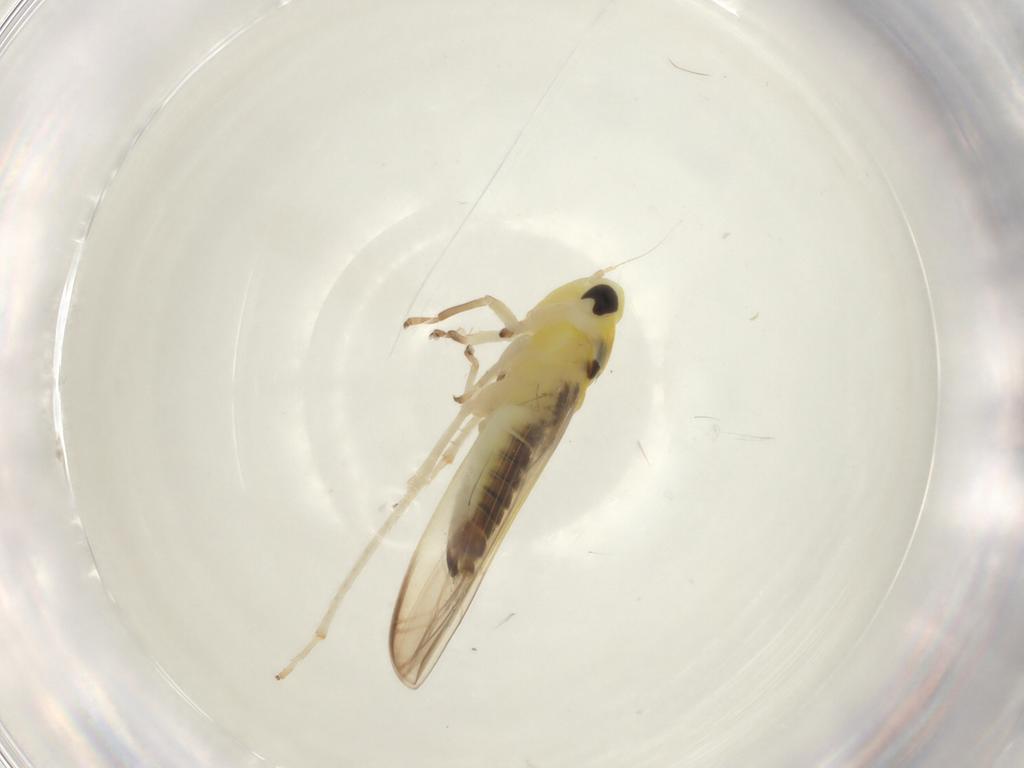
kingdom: Animalia
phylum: Arthropoda
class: Insecta
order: Hemiptera
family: Cicadellidae
